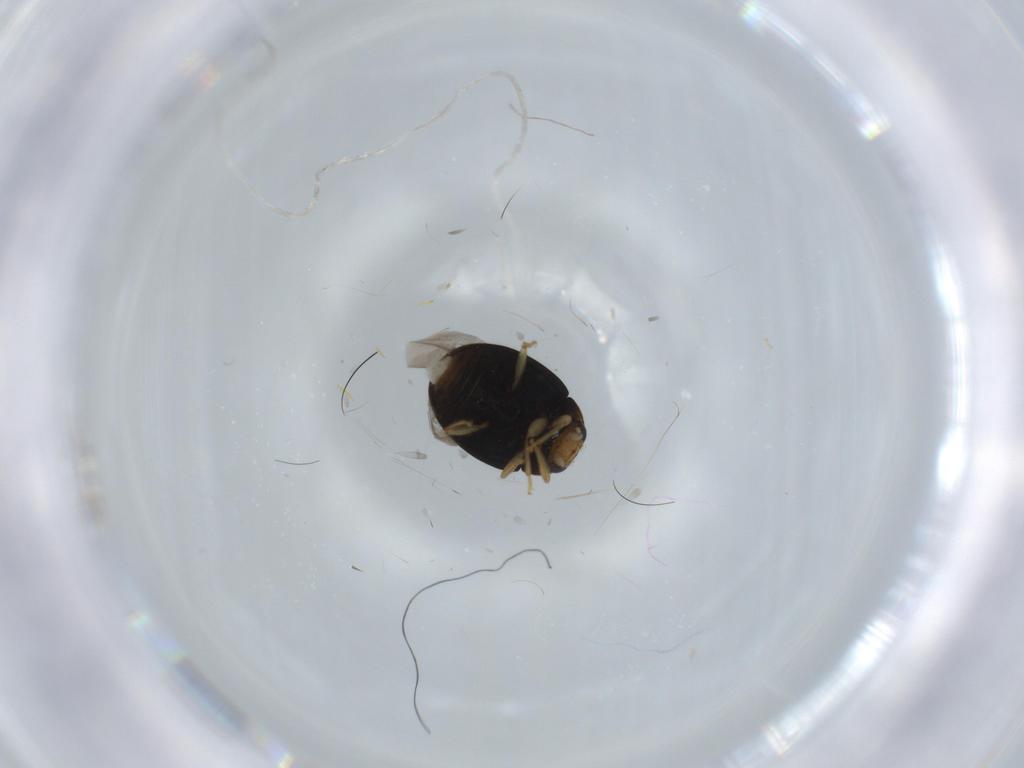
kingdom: Animalia
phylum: Arthropoda
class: Insecta
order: Coleoptera
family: Coccinellidae
